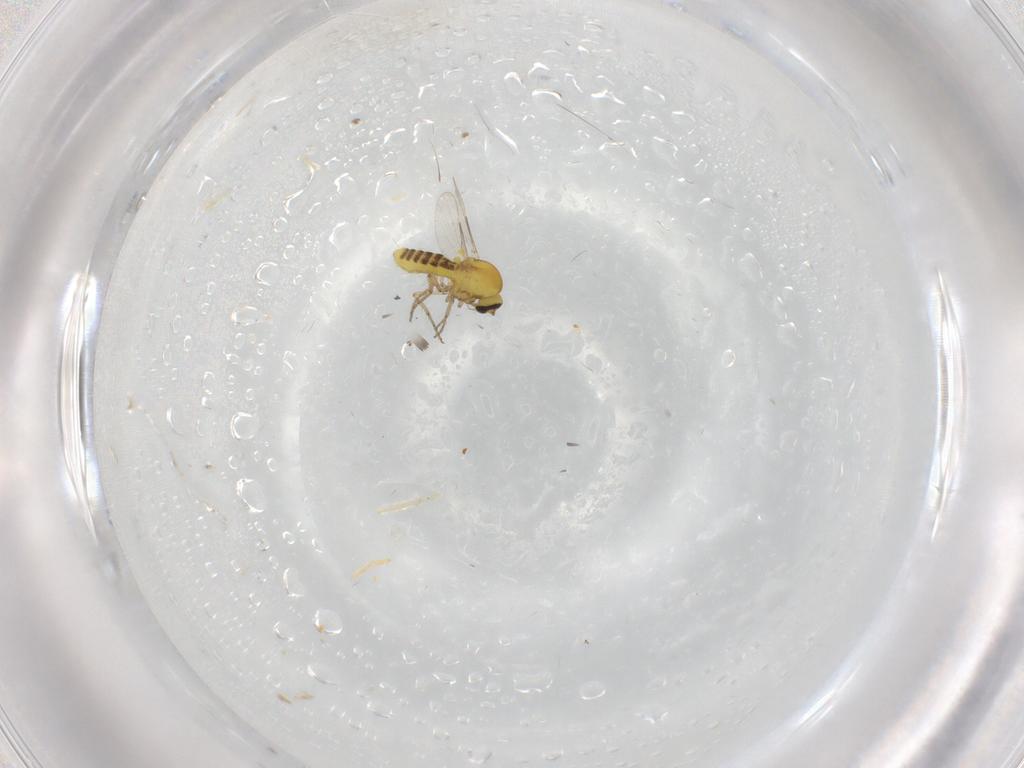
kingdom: Animalia
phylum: Arthropoda
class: Insecta
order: Diptera
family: Ceratopogonidae
